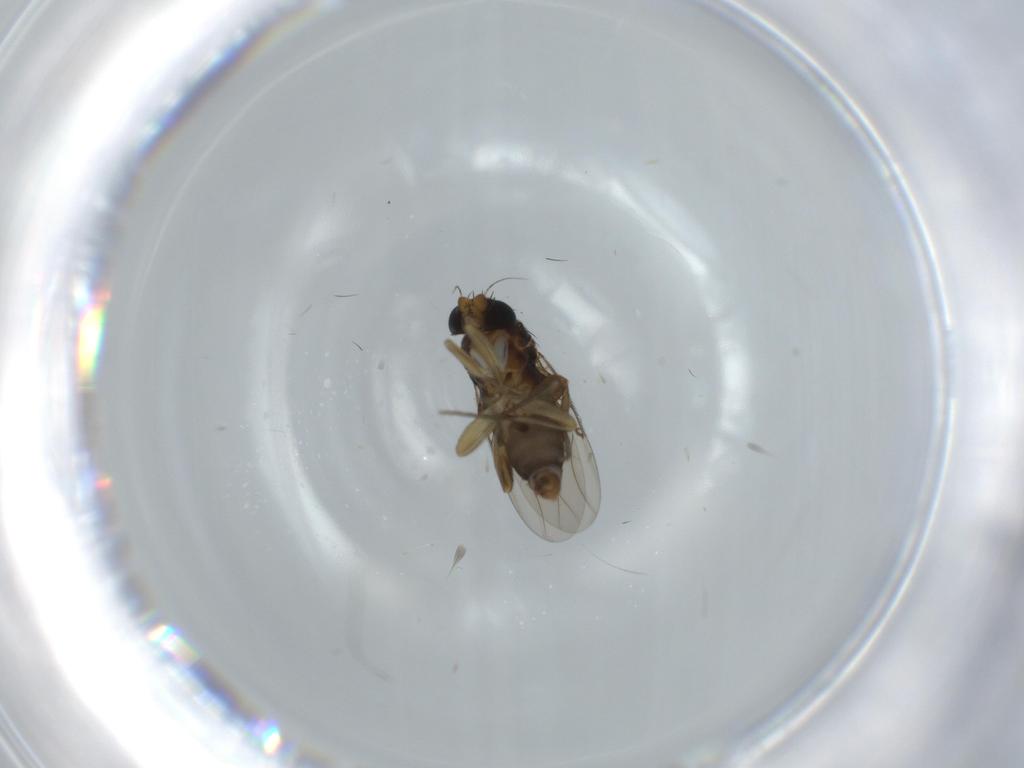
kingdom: Animalia
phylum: Arthropoda
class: Insecta
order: Diptera
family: Phoridae
